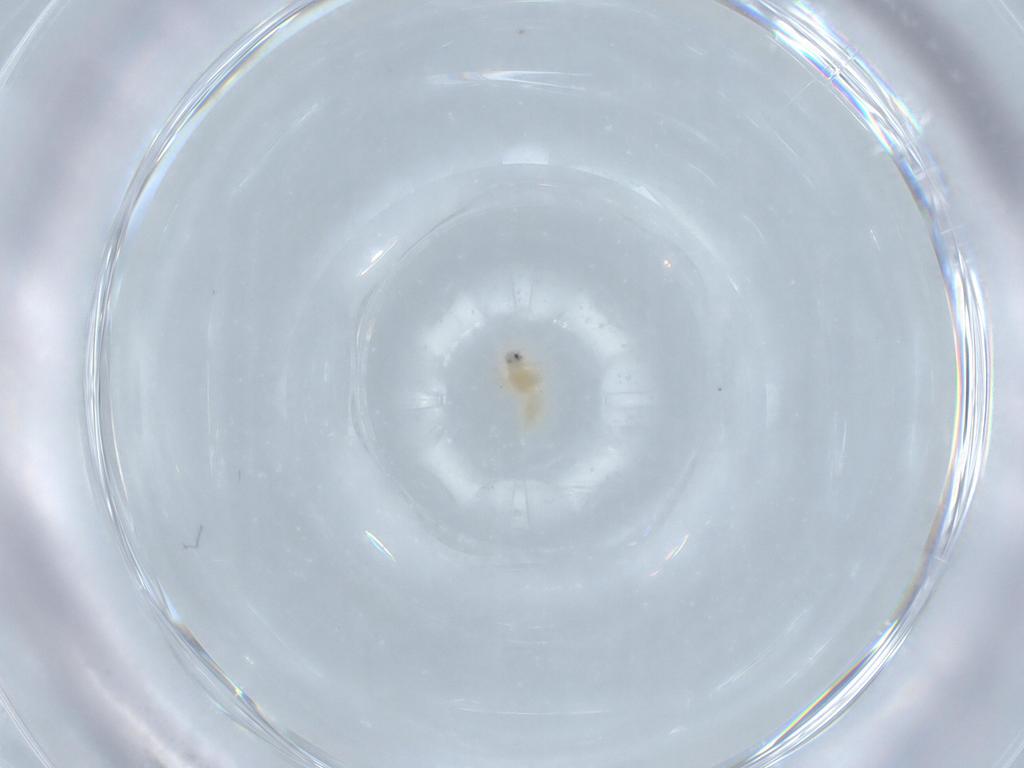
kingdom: Animalia
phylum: Arthropoda
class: Insecta
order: Hemiptera
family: Aleyrodidae
